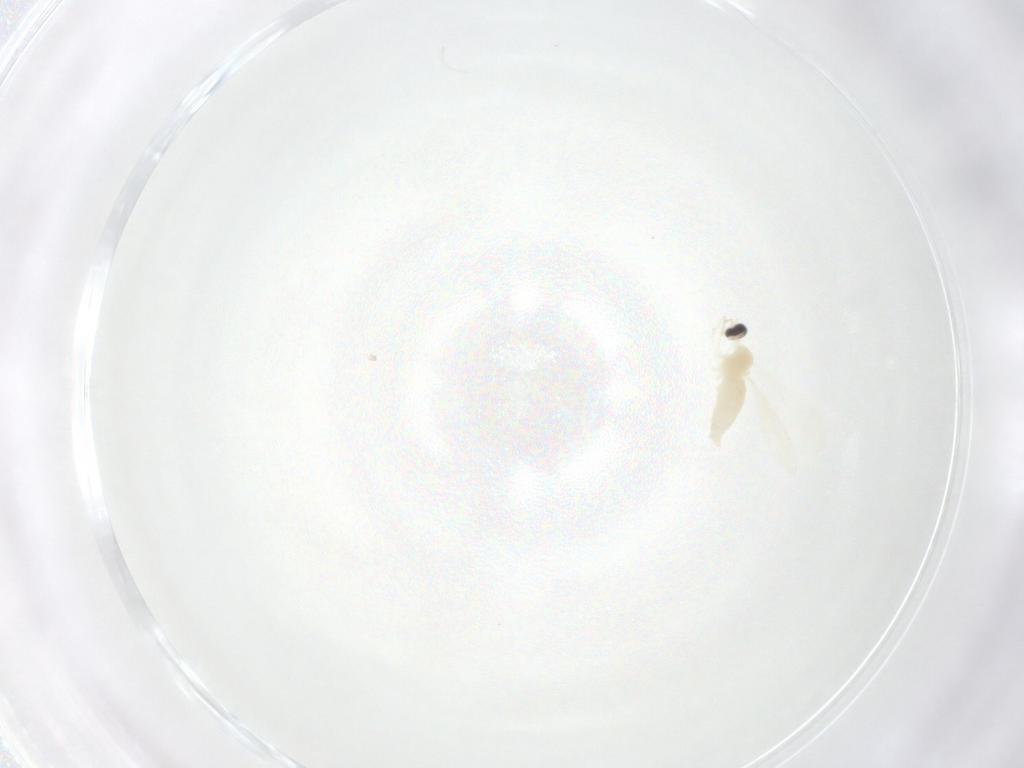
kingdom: Animalia
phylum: Arthropoda
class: Insecta
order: Diptera
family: Cecidomyiidae
